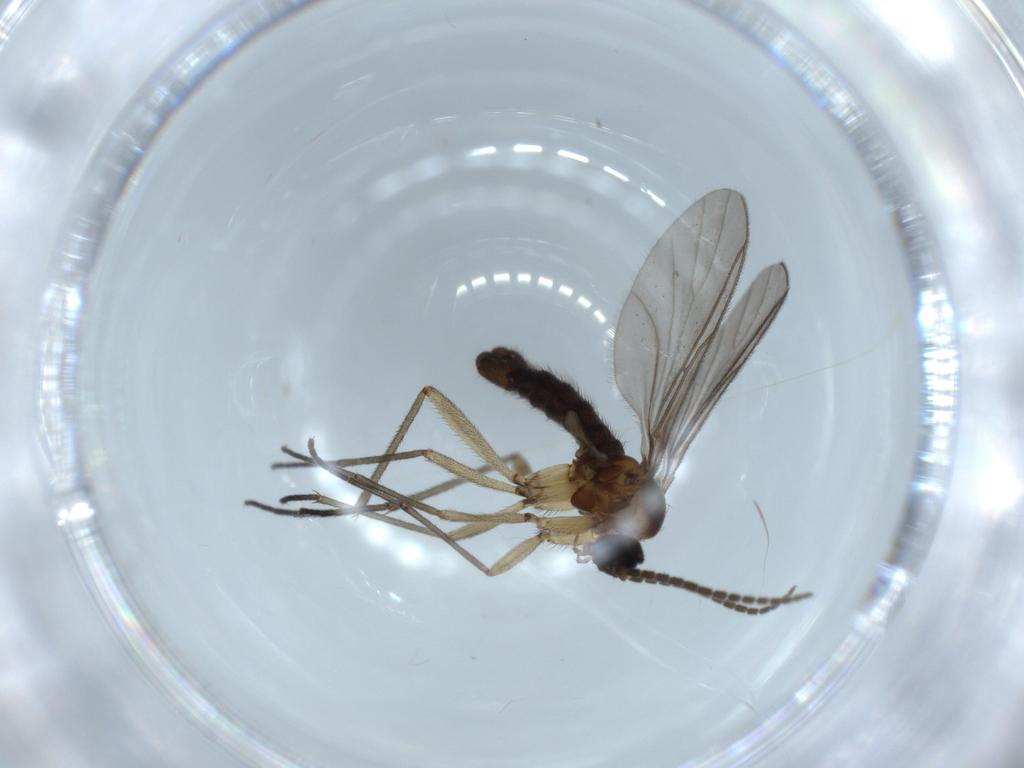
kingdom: Animalia
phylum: Arthropoda
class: Insecta
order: Diptera
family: Sciaridae
